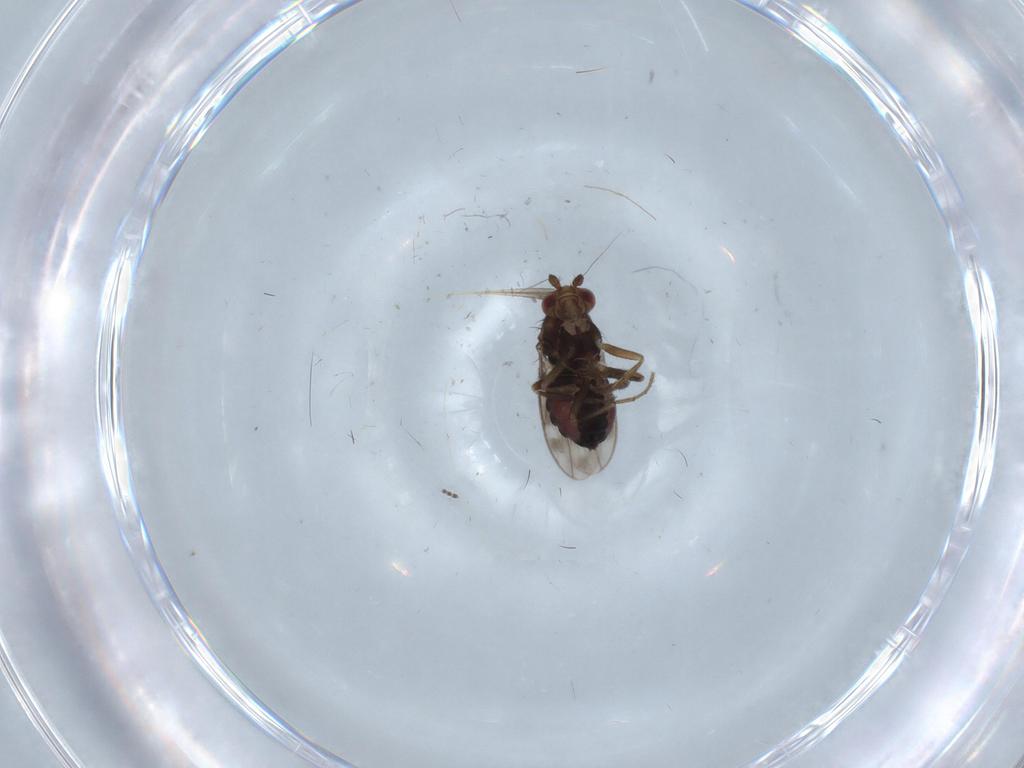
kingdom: Animalia
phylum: Arthropoda
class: Insecta
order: Diptera
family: Sphaeroceridae
